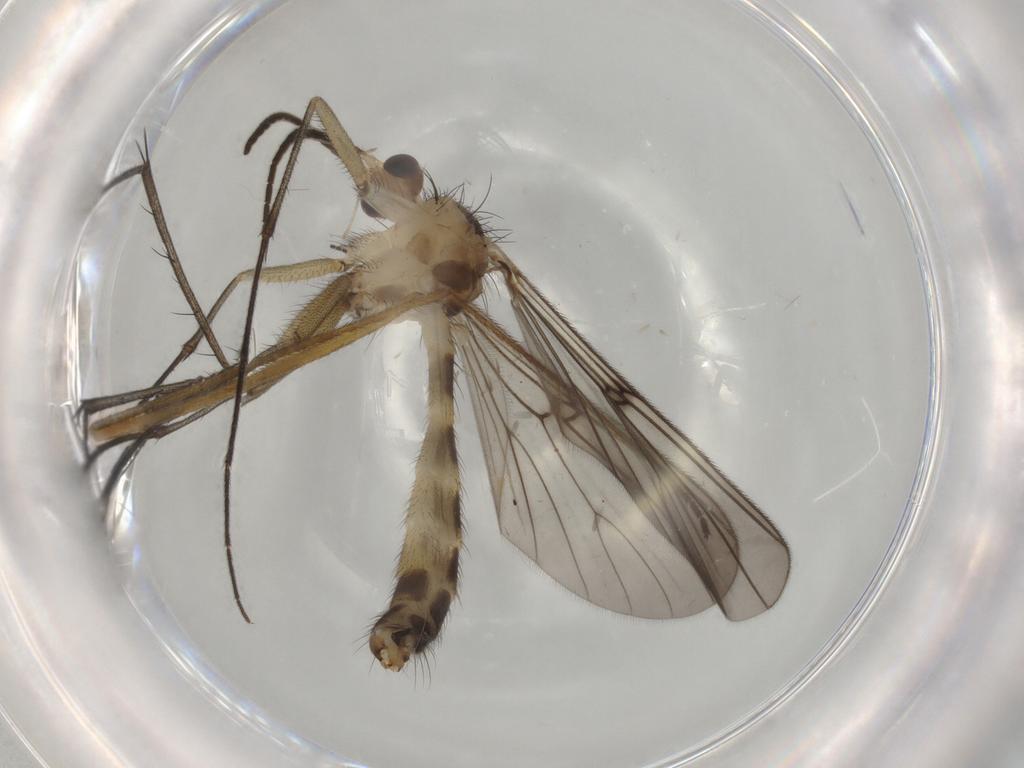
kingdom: Animalia
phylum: Arthropoda
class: Insecta
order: Diptera
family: Mycetophilidae
